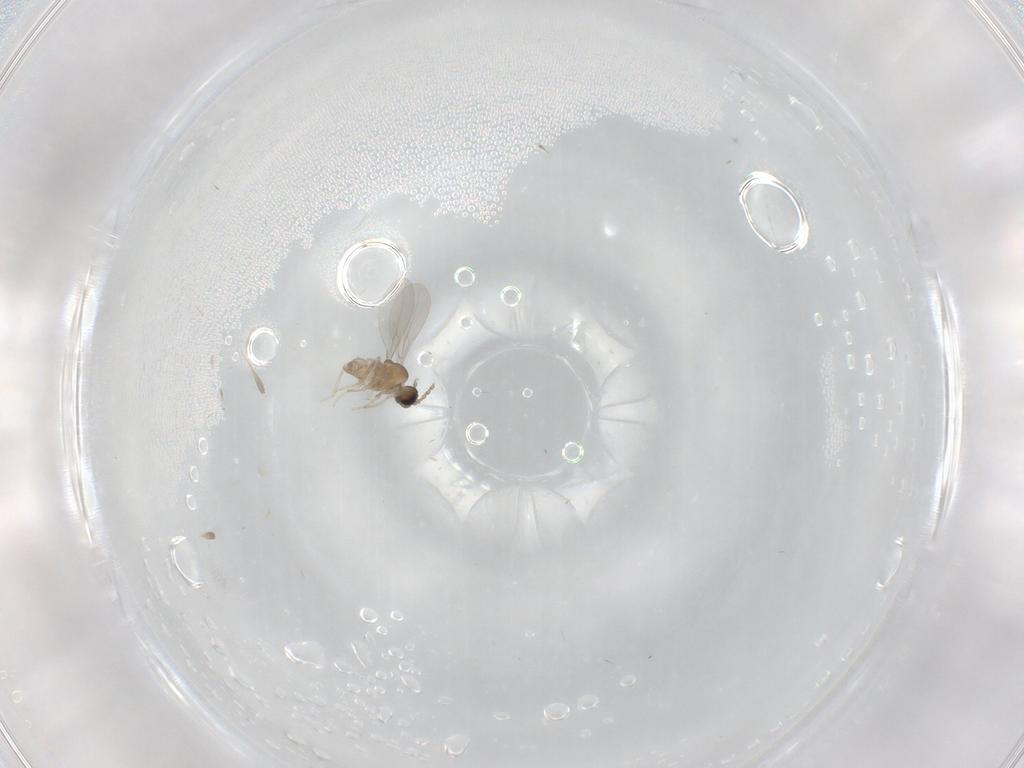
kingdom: Animalia
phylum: Arthropoda
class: Insecta
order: Diptera
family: Cecidomyiidae
